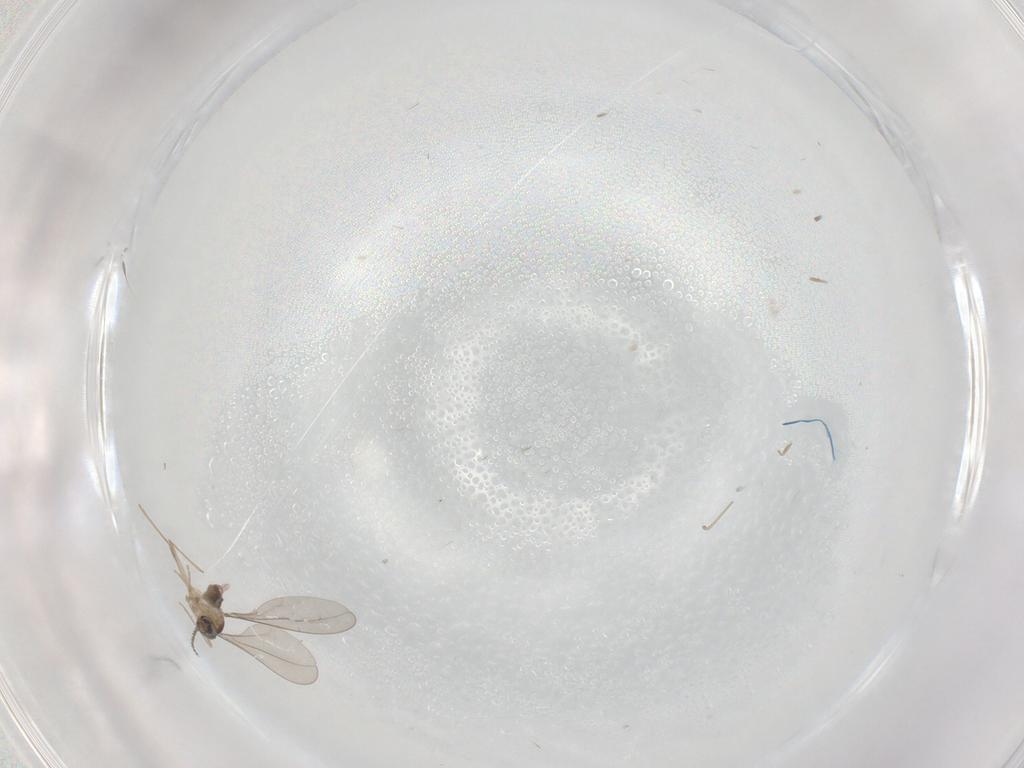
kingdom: Animalia
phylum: Arthropoda
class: Insecta
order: Diptera
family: Cecidomyiidae
